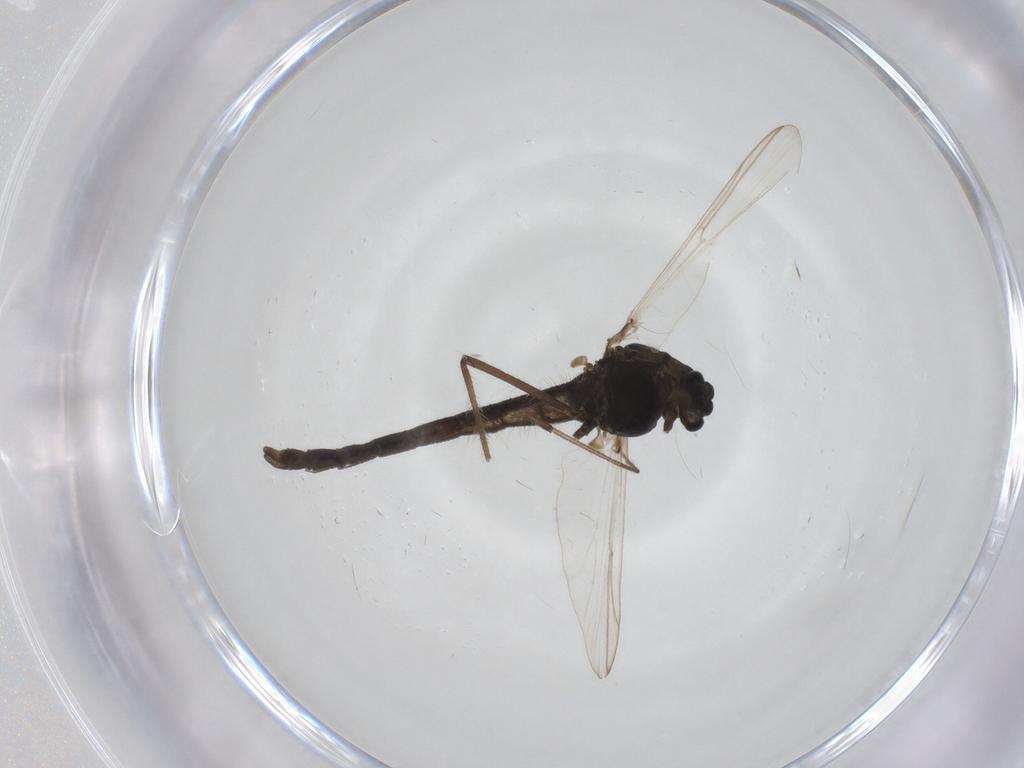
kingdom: Animalia
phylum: Arthropoda
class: Insecta
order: Diptera
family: Chironomidae
